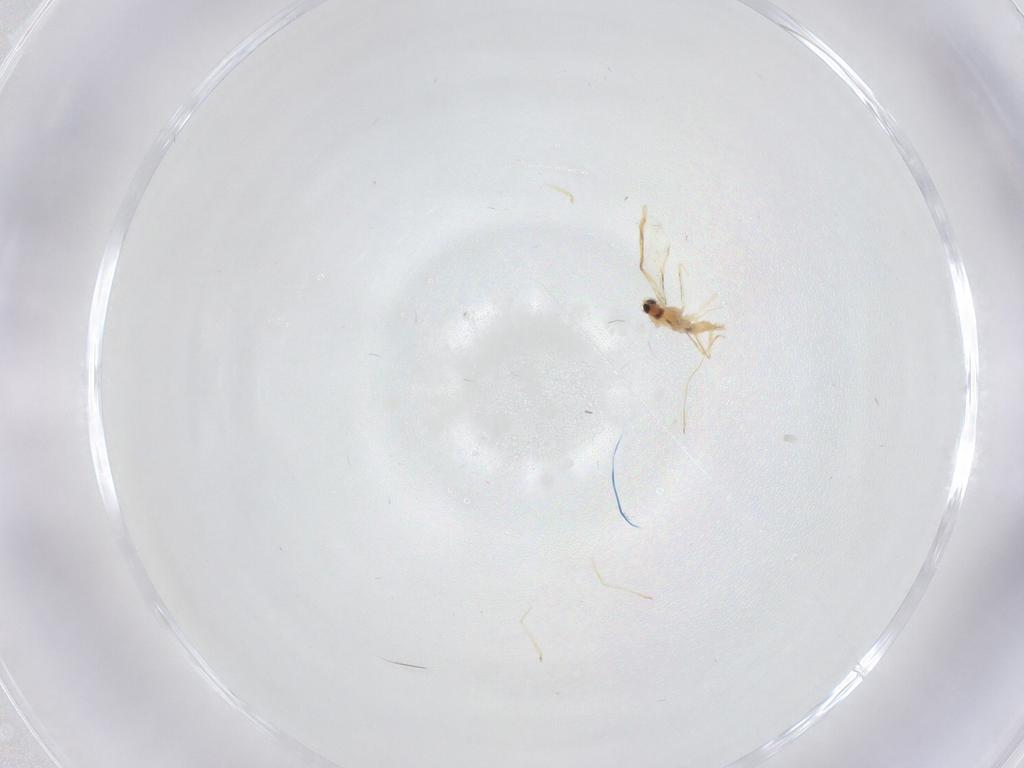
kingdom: Animalia
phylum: Arthropoda
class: Insecta
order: Diptera
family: Cecidomyiidae
